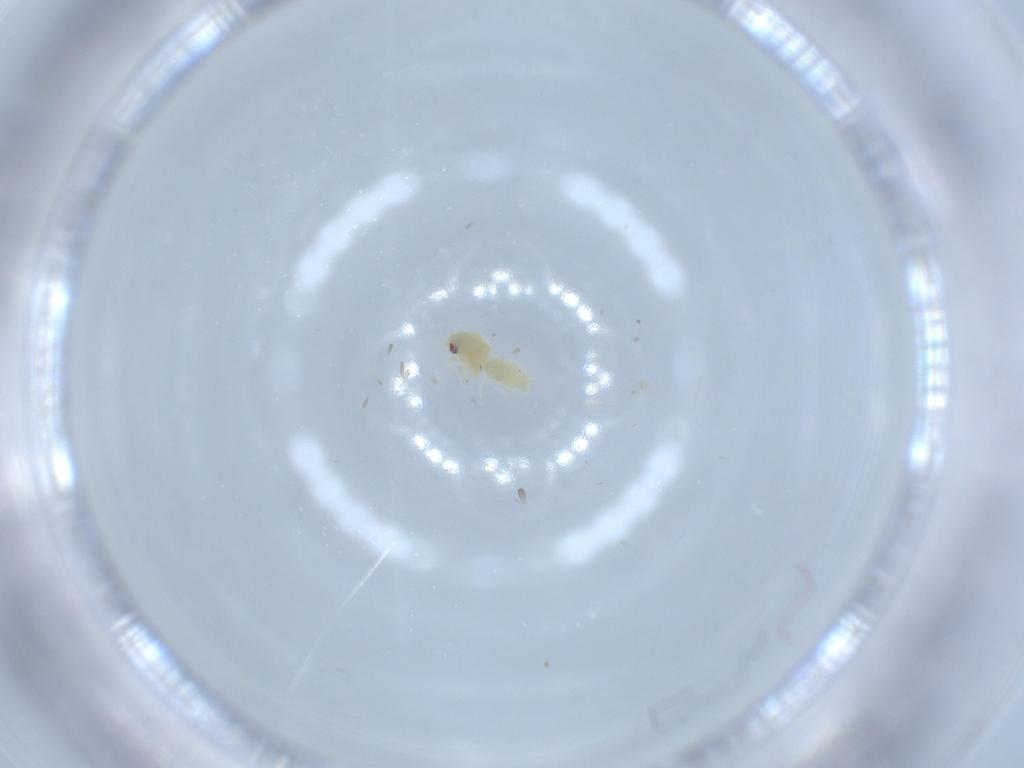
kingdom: Animalia
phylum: Arthropoda
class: Insecta
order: Hemiptera
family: Aleyrodidae
